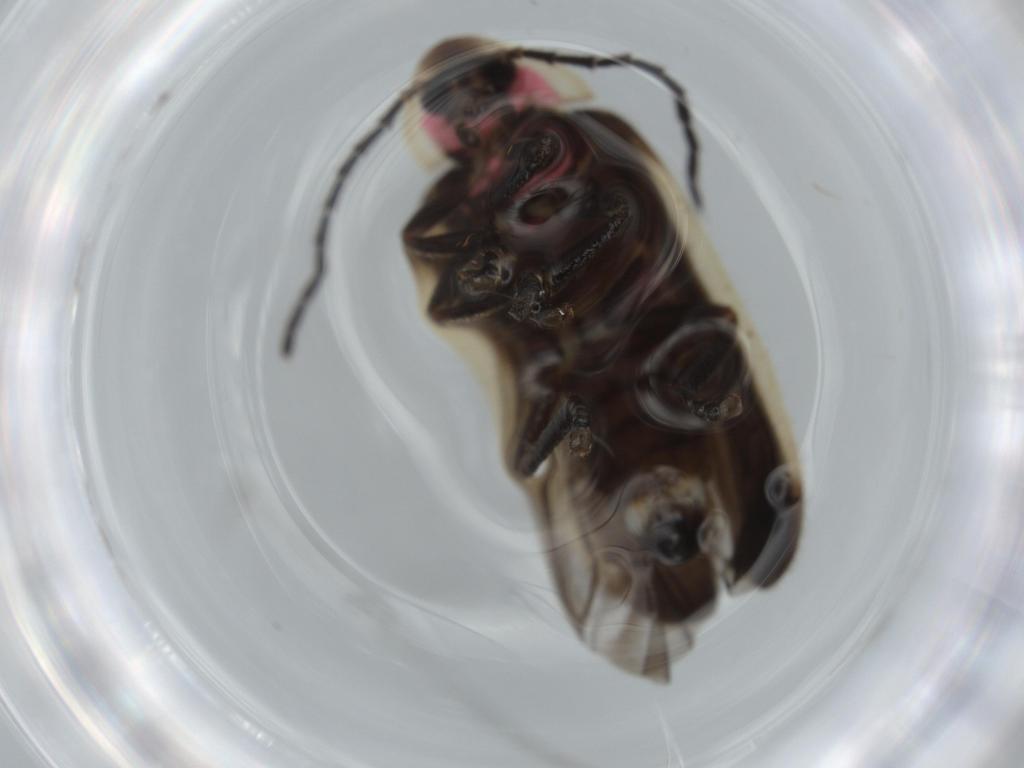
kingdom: Animalia
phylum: Arthropoda
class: Insecta
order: Coleoptera
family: Lampyridae
